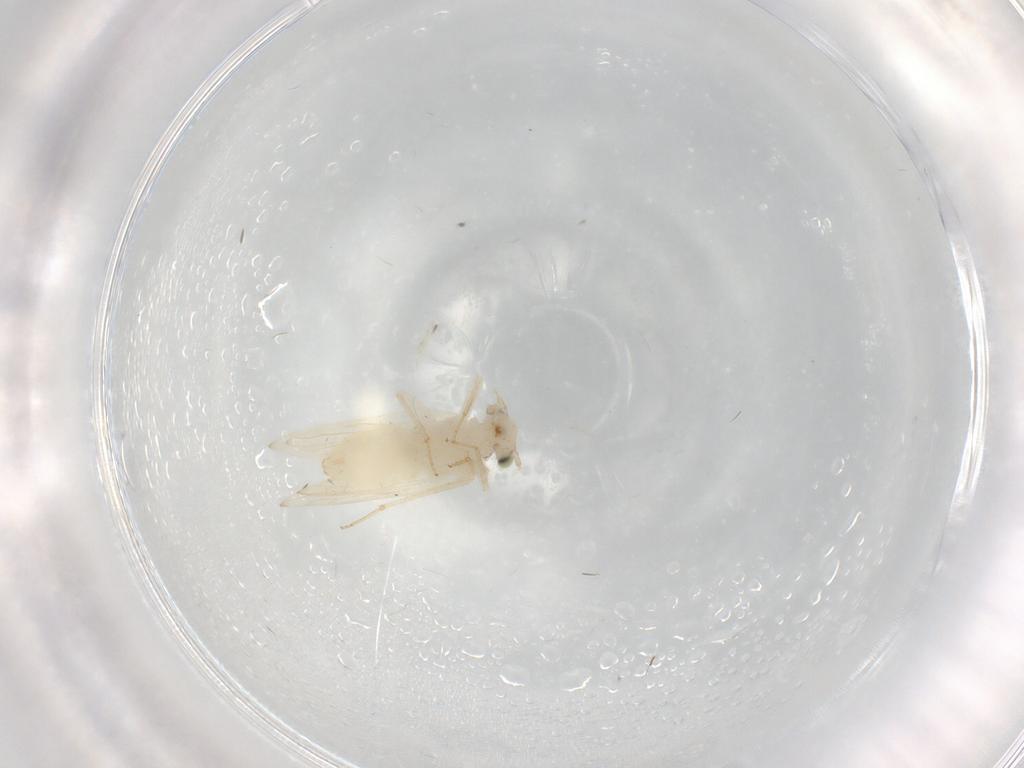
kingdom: Animalia
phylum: Arthropoda
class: Insecta
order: Psocodea
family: Lepidopsocidae
